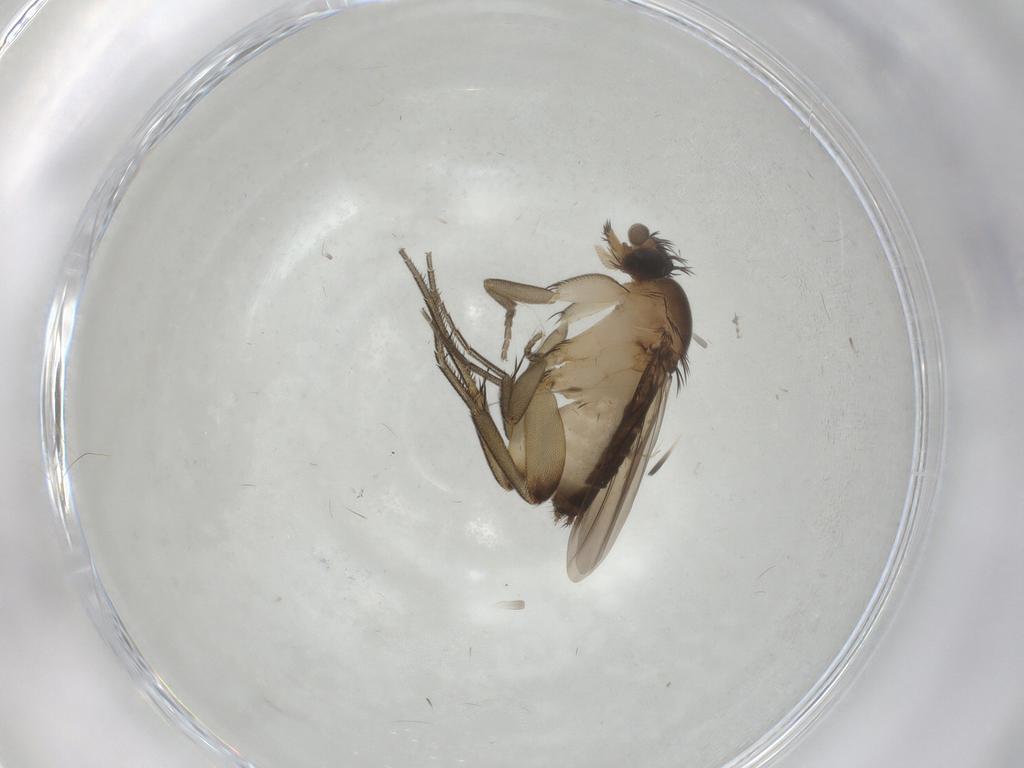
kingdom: Animalia
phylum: Arthropoda
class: Insecta
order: Diptera
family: Phoridae
